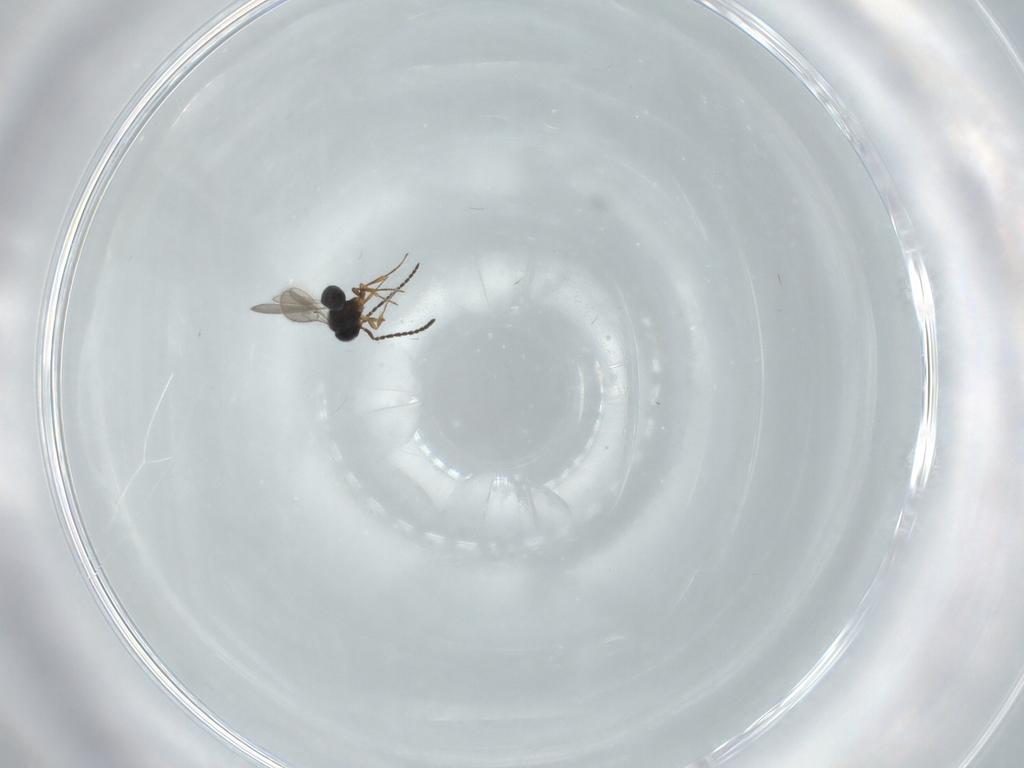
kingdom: Animalia
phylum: Arthropoda
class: Insecta
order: Hymenoptera
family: Scelionidae
